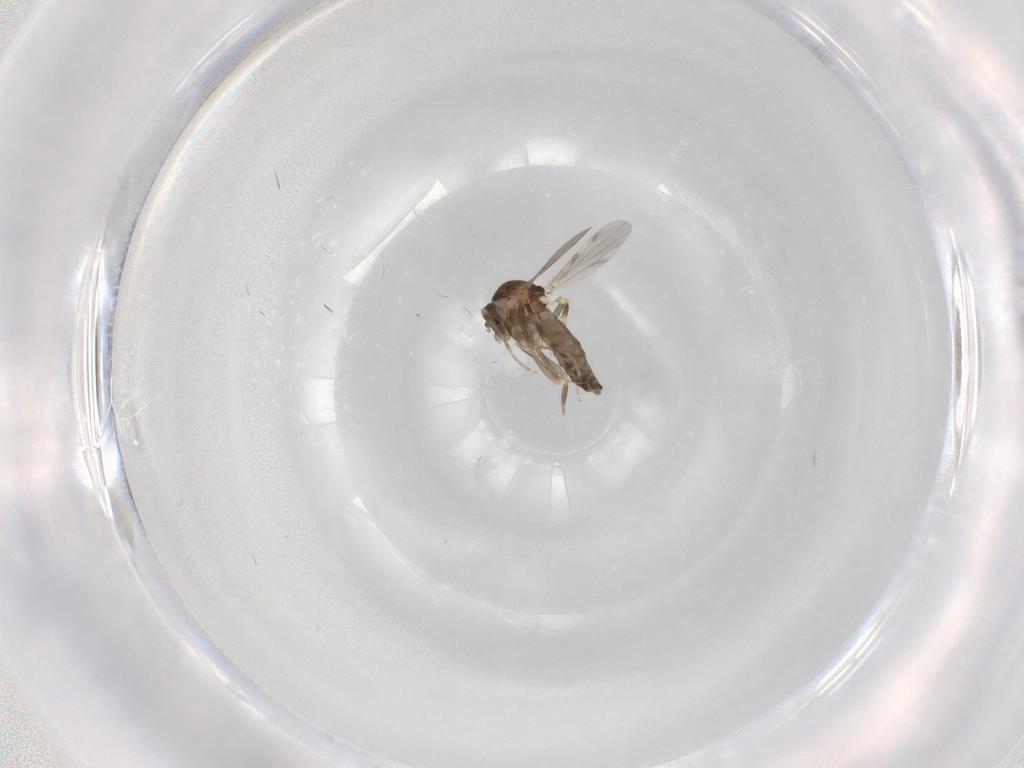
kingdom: Animalia
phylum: Arthropoda
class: Insecta
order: Diptera
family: Ceratopogonidae
